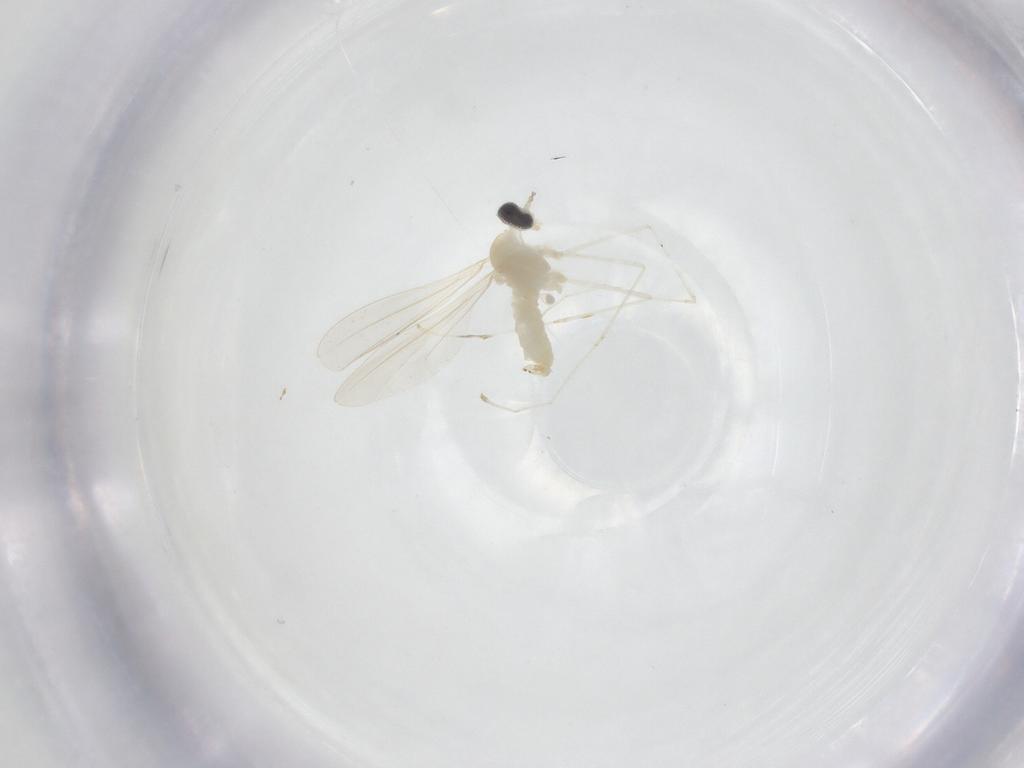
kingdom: Animalia
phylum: Arthropoda
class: Insecta
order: Diptera
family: Cecidomyiidae
